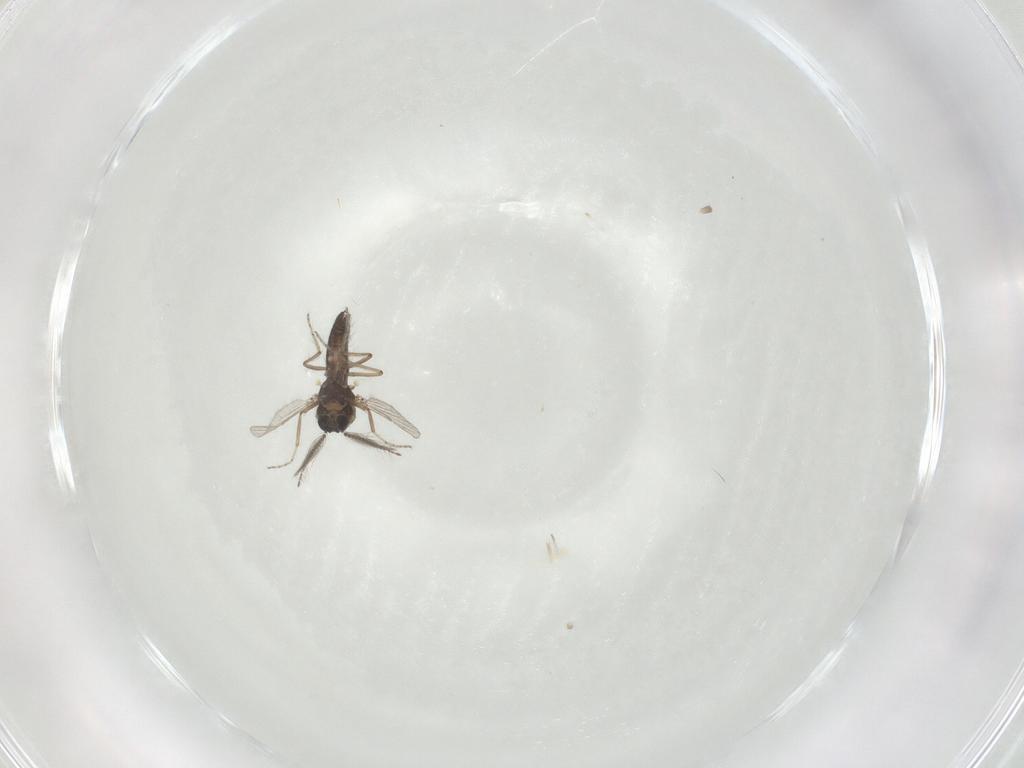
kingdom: Animalia
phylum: Arthropoda
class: Insecta
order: Diptera
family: Ceratopogonidae
